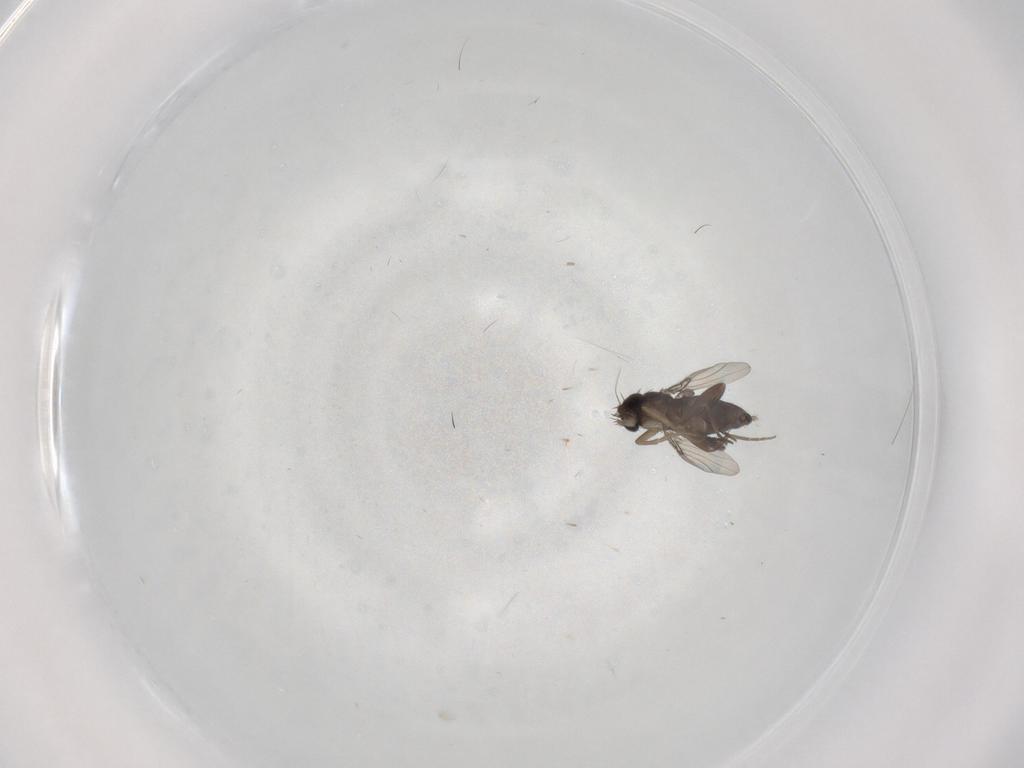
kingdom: Animalia
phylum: Arthropoda
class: Insecta
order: Diptera
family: Phoridae
